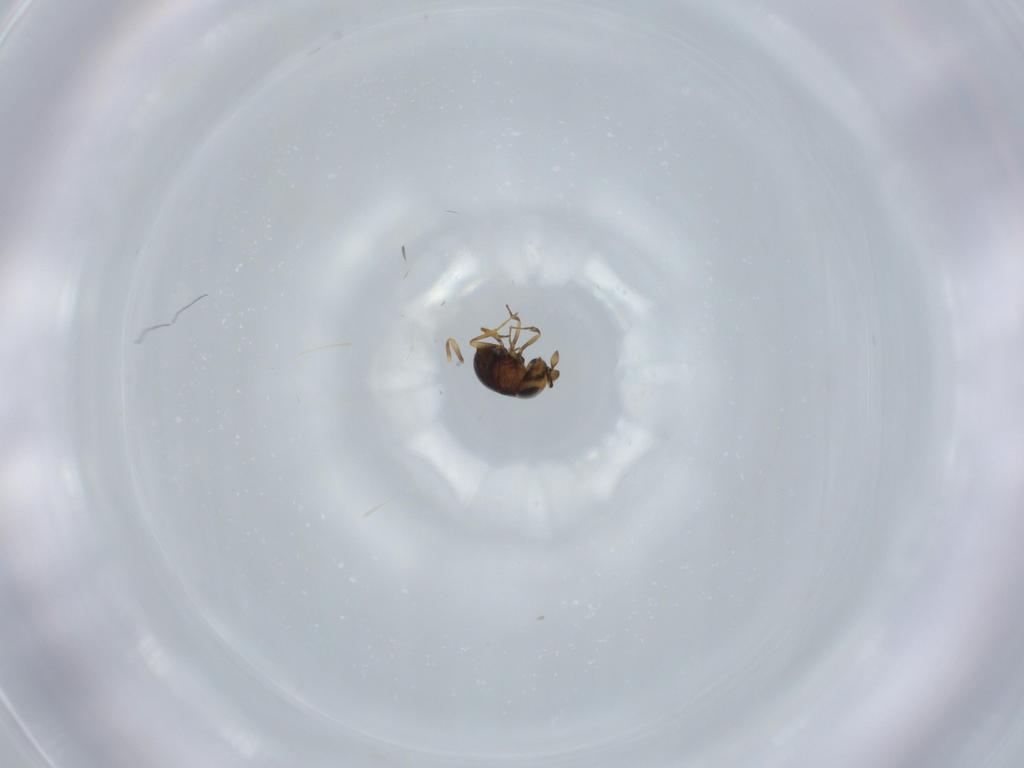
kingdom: Animalia
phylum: Arthropoda
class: Insecta
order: Hymenoptera
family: Scelionidae
